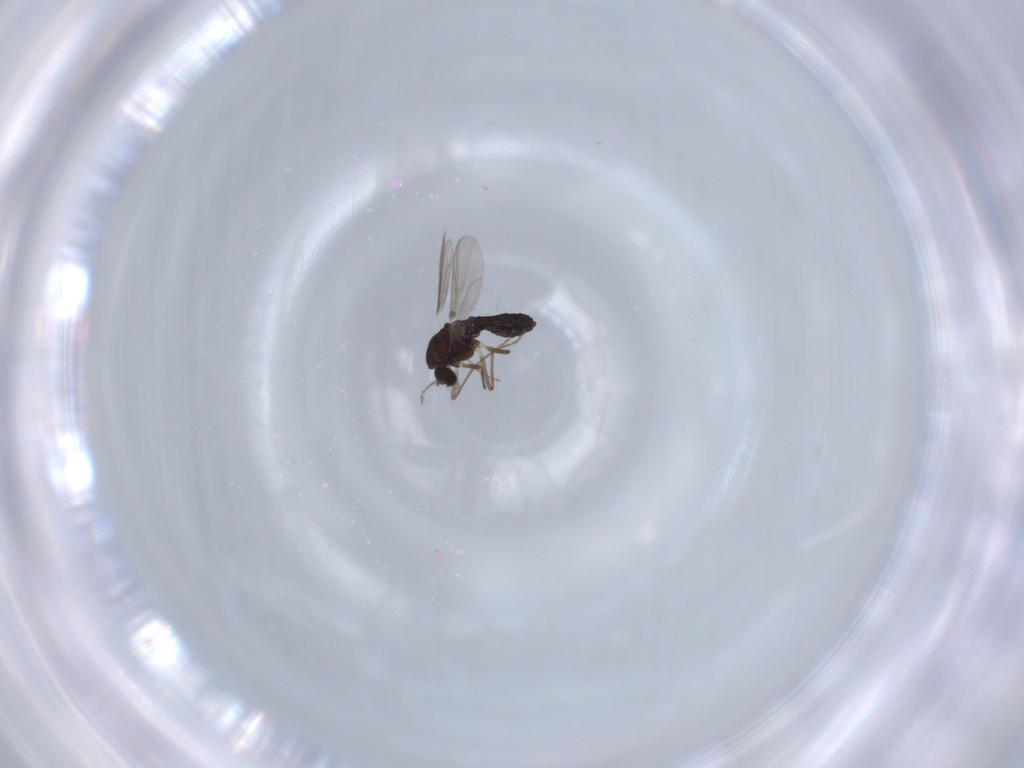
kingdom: Animalia
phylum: Arthropoda
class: Insecta
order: Diptera
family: Chironomidae
